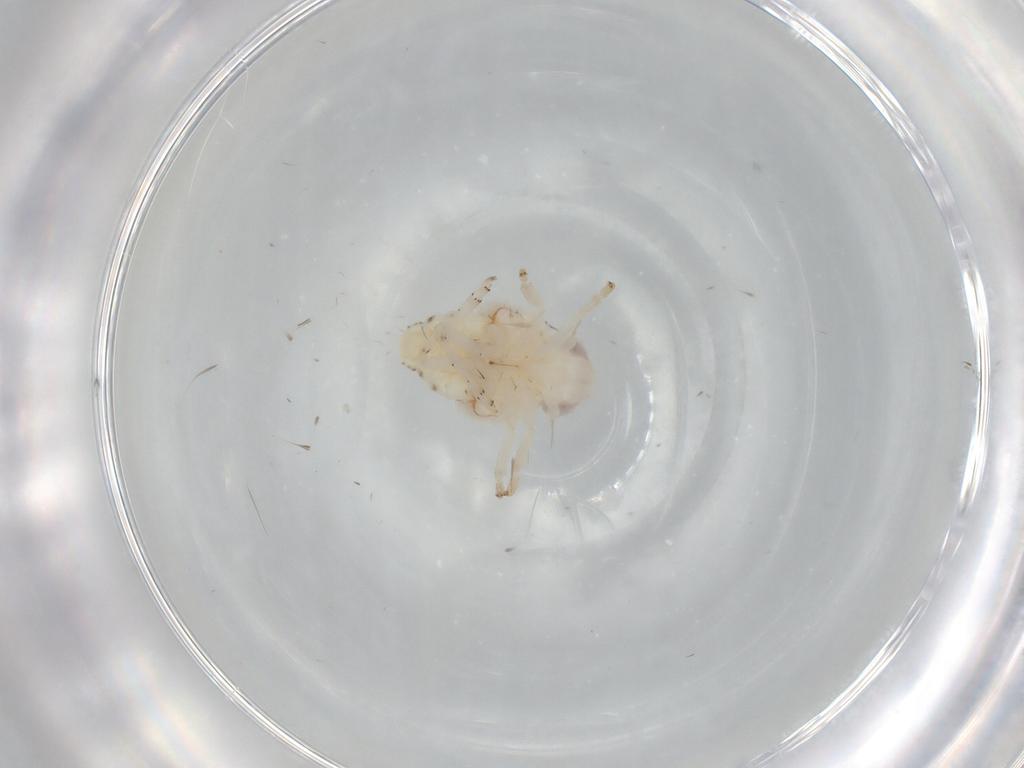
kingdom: Animalia
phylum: Arthropoda
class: Insecta
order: Hemiptera
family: Nogodinidae
